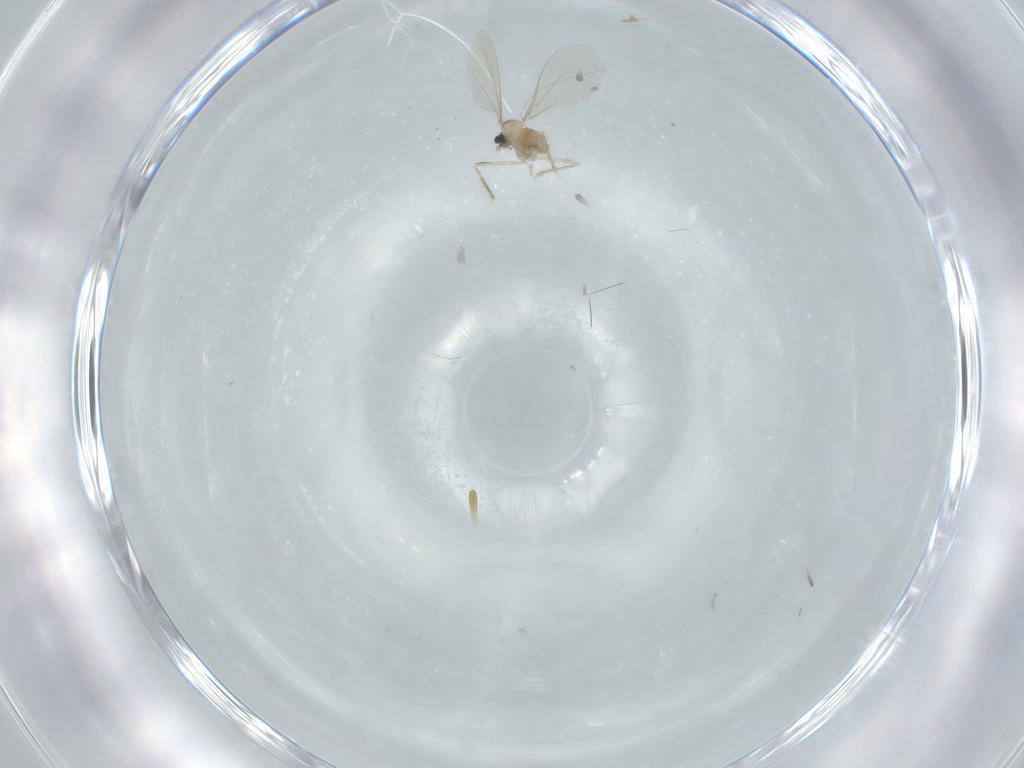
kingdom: Animalia
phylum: Arthropoda
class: Insecta
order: Diptera
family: Cecidomyiidae
